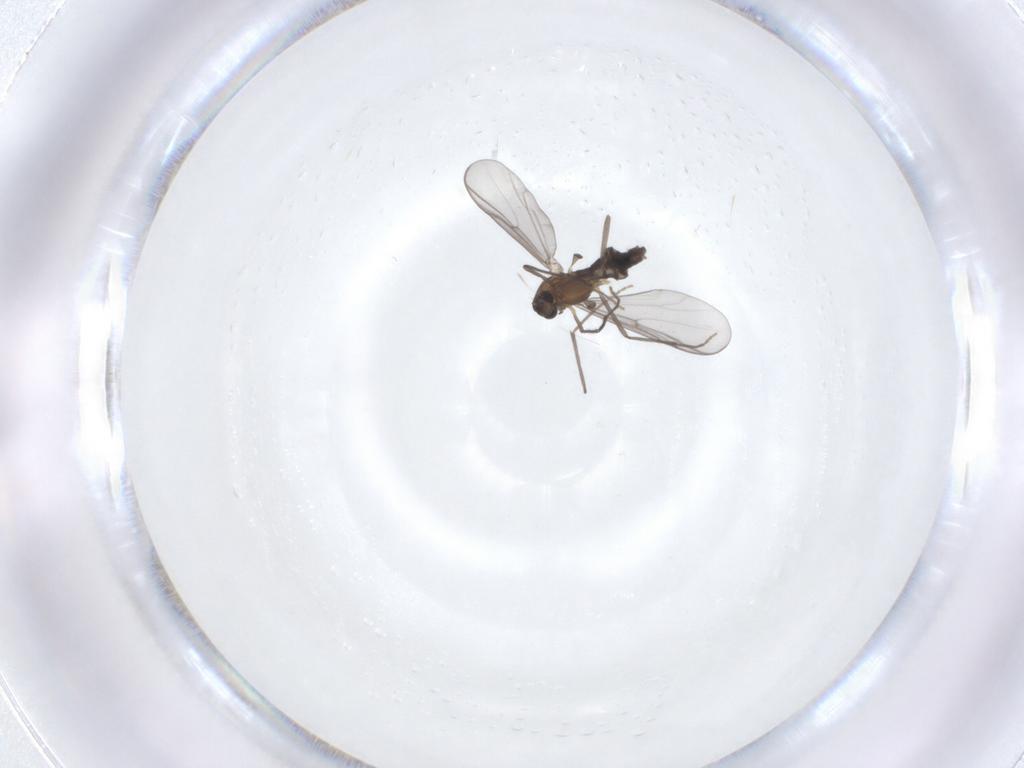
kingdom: Animalia
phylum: Arthropoda
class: Insecta
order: Diptera
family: Chironomidae
